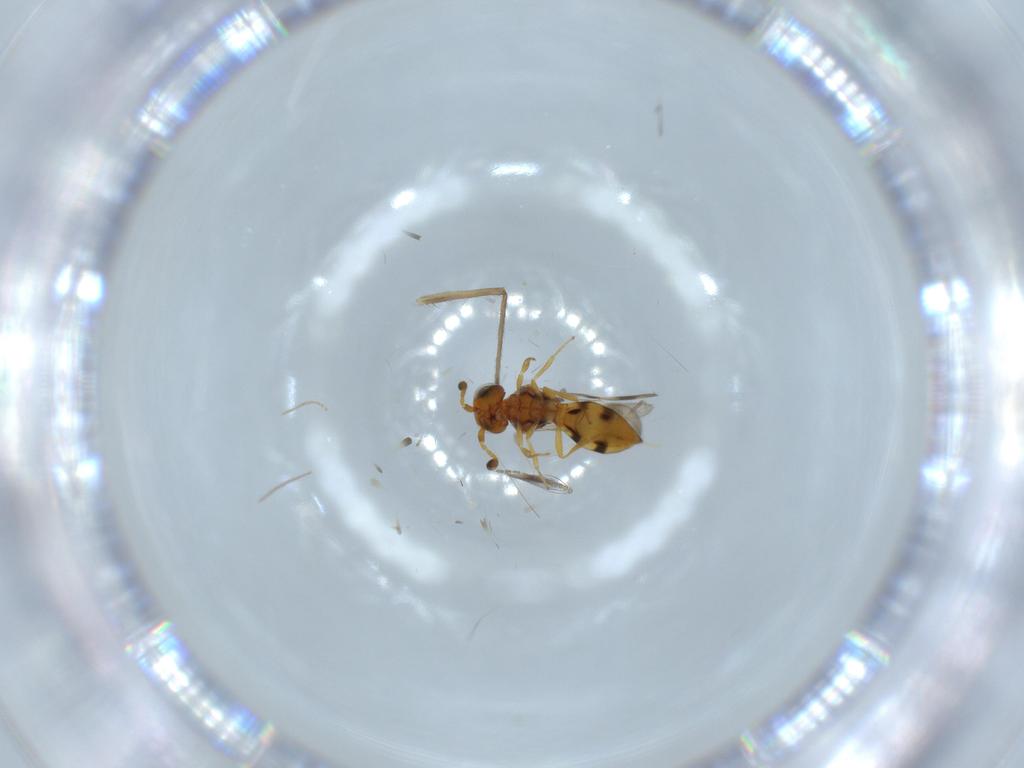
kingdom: Animalia
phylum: Arthropoda
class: Insecta
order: Hymenoptera
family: Scelionidae
